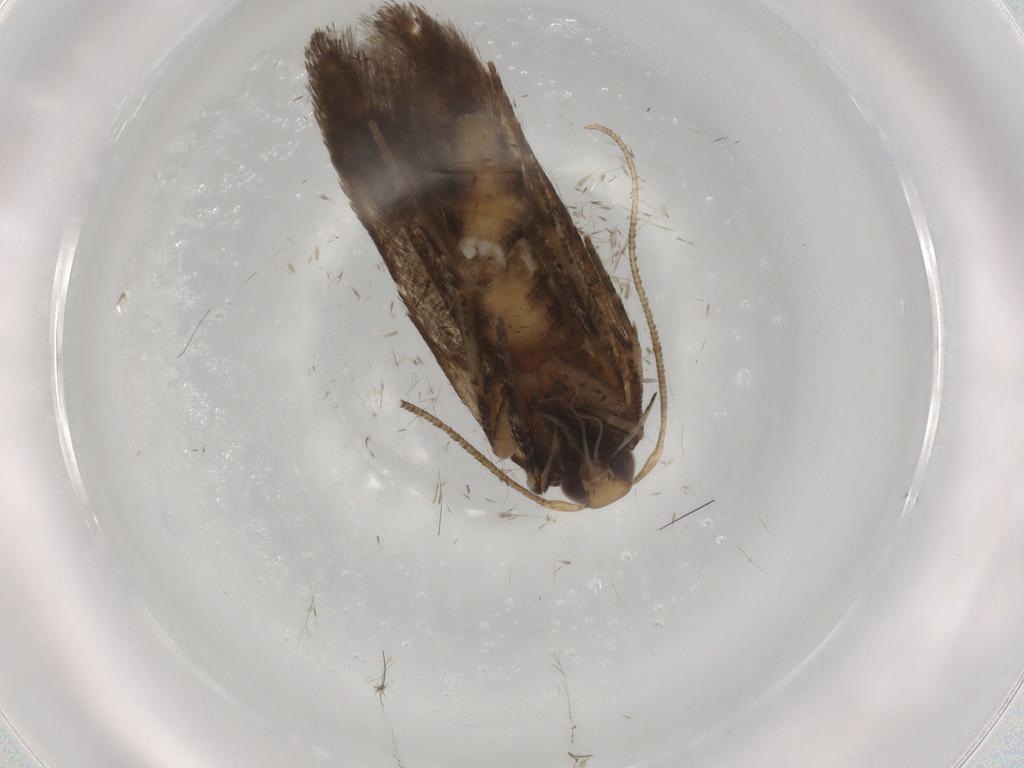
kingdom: Animalia
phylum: Arthropoda
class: Insecta
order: Lepidoptera
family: Cosmopterigidae
